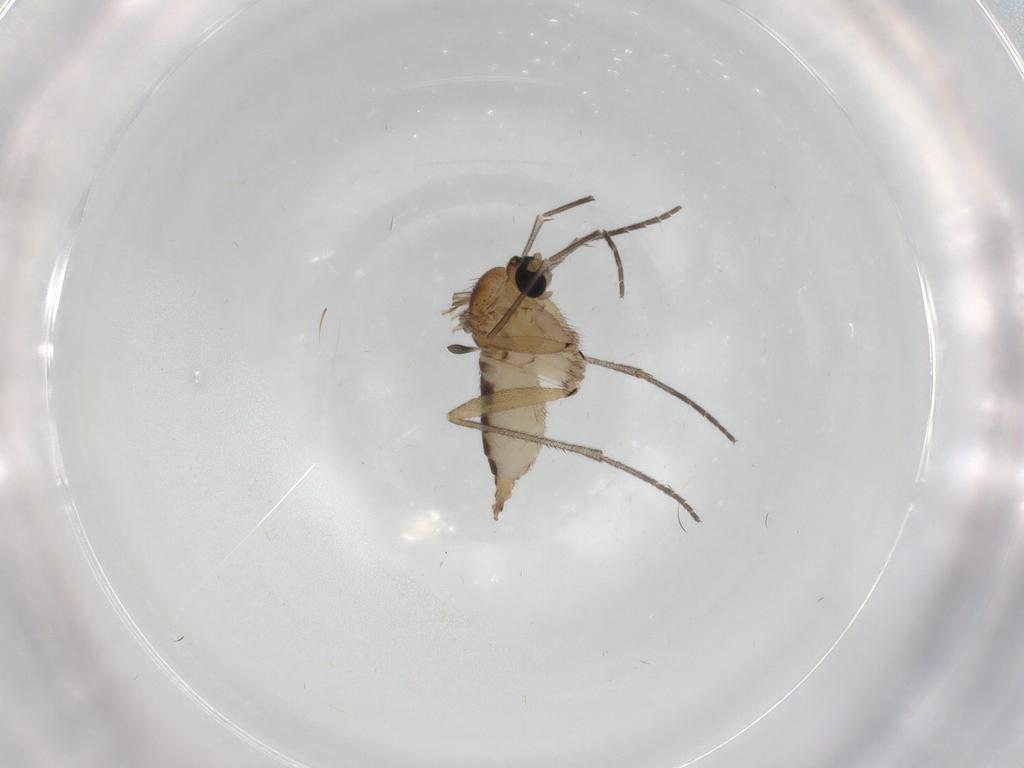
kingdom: Animalia
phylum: Arthropoda
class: Insecta
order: Diptera
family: Sciaridae
